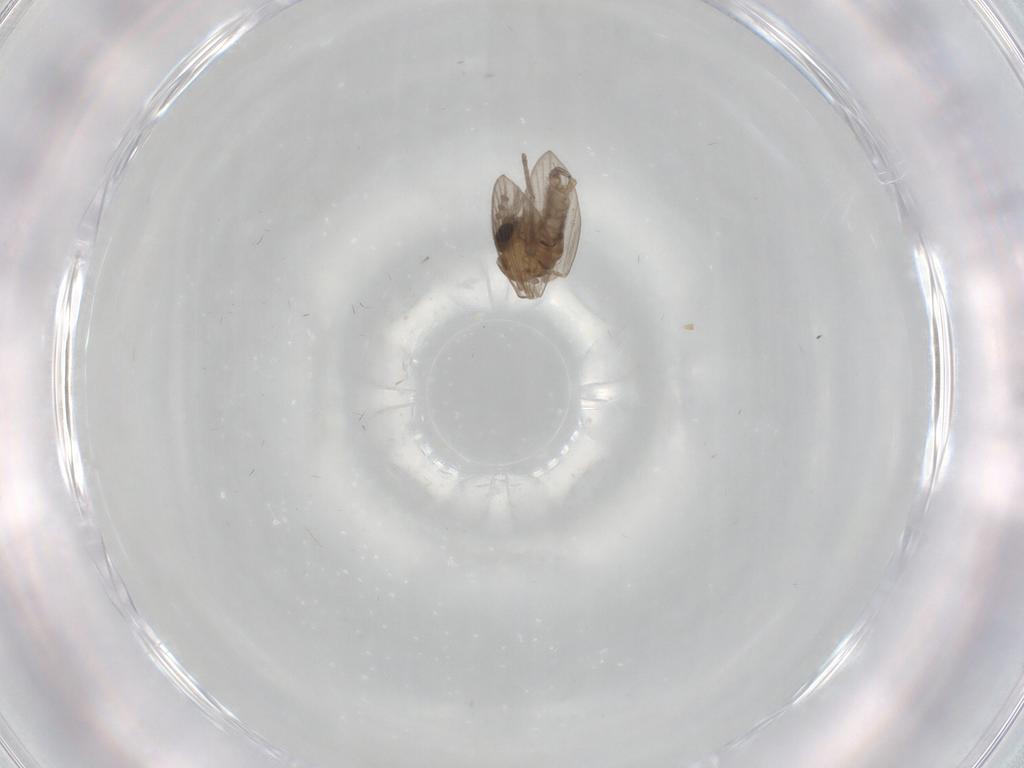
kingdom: Animalia
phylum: Arthropoda
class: Insecta
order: Diptera
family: Psychodidae
